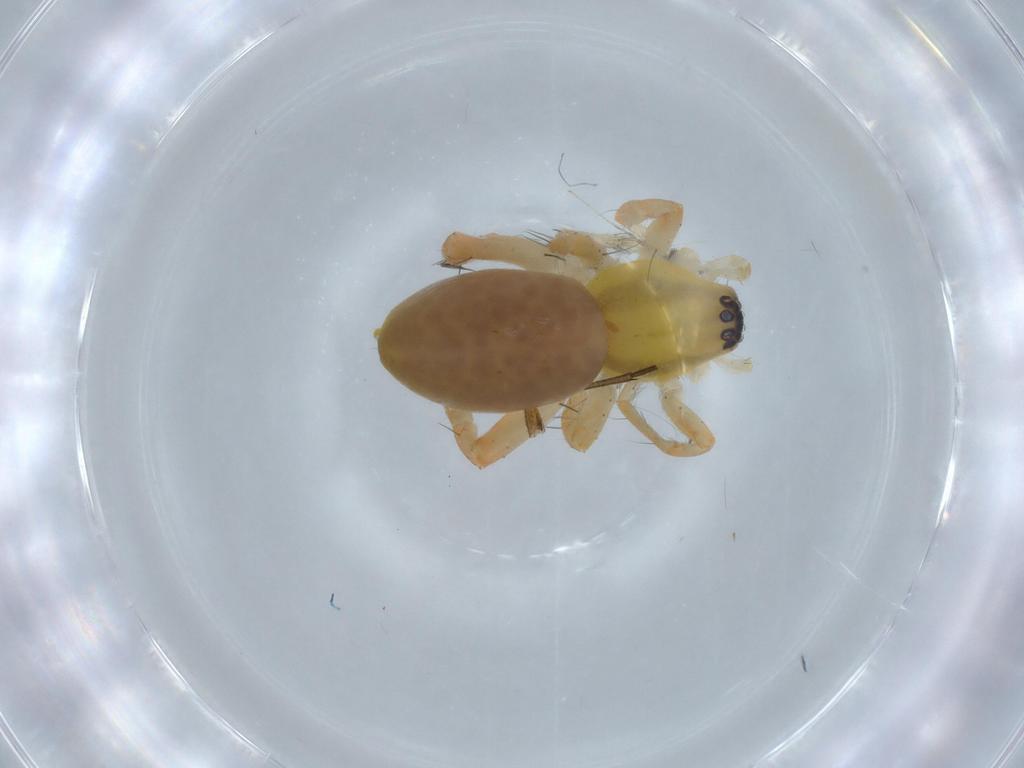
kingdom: Animalia
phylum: Arthropoda
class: Arachnida
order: Araneae
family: Anyphaenidae
